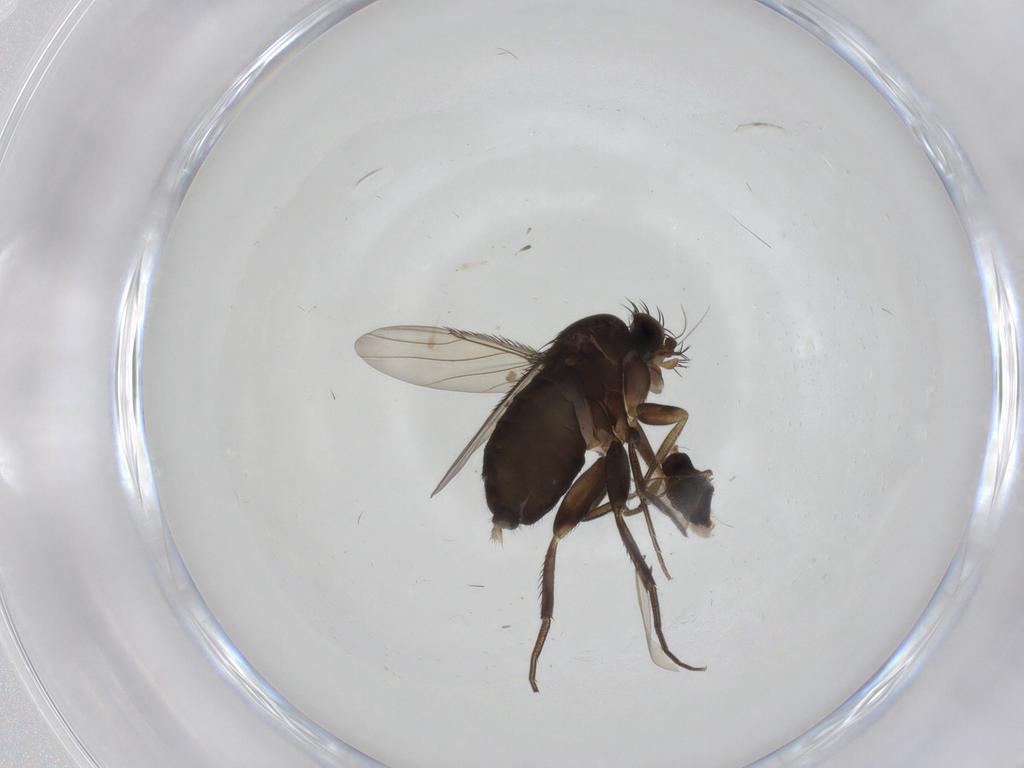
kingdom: Animalia
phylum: Arthropoda
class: Insecta
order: Diptera
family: Phoridae
